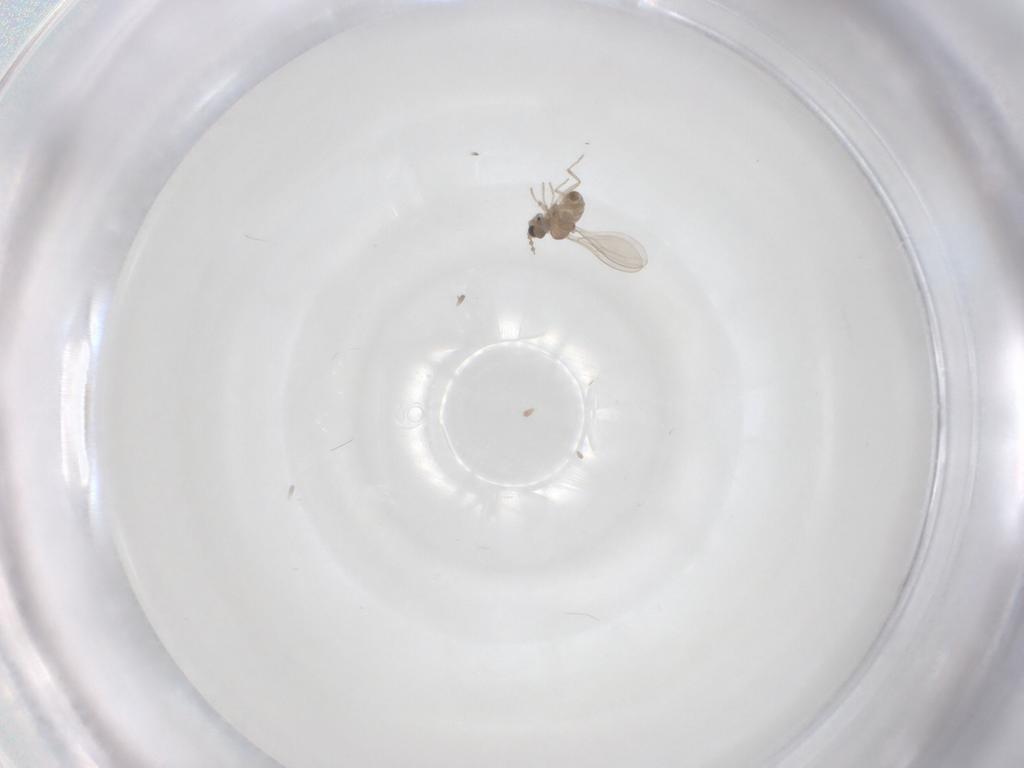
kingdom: Animalia
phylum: Arthropoda
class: Insecta
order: Diptera
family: Cecidomyiidae
